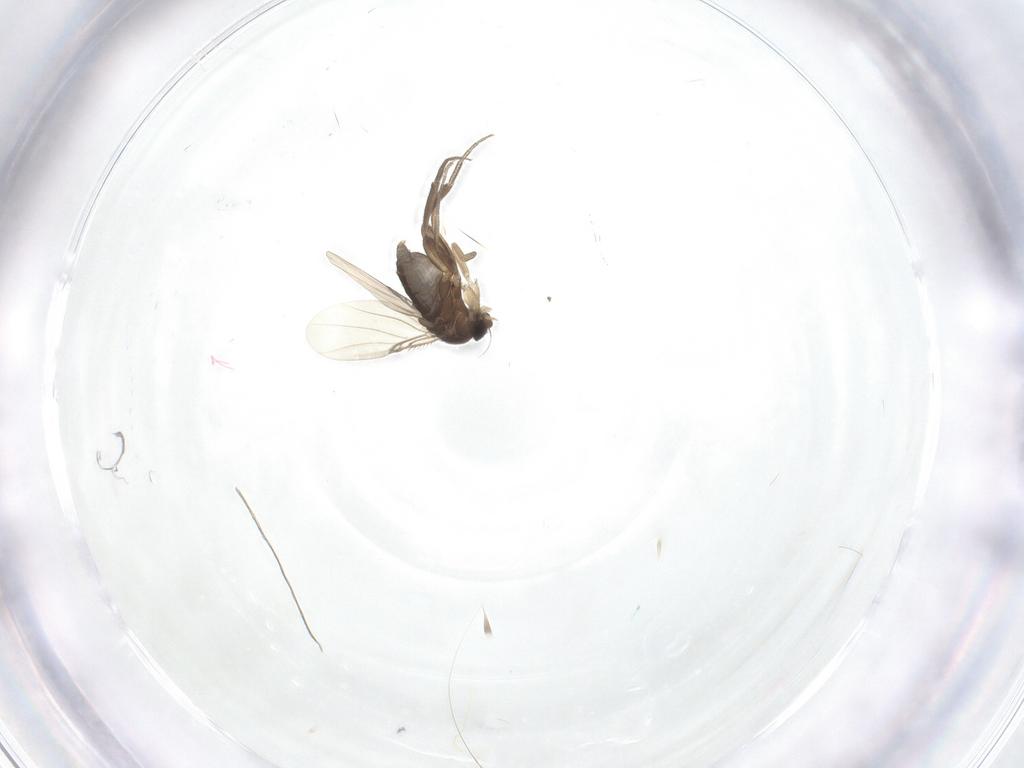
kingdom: Animalia
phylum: Arthropoda
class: Insecta
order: Diptera
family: Phoridae
